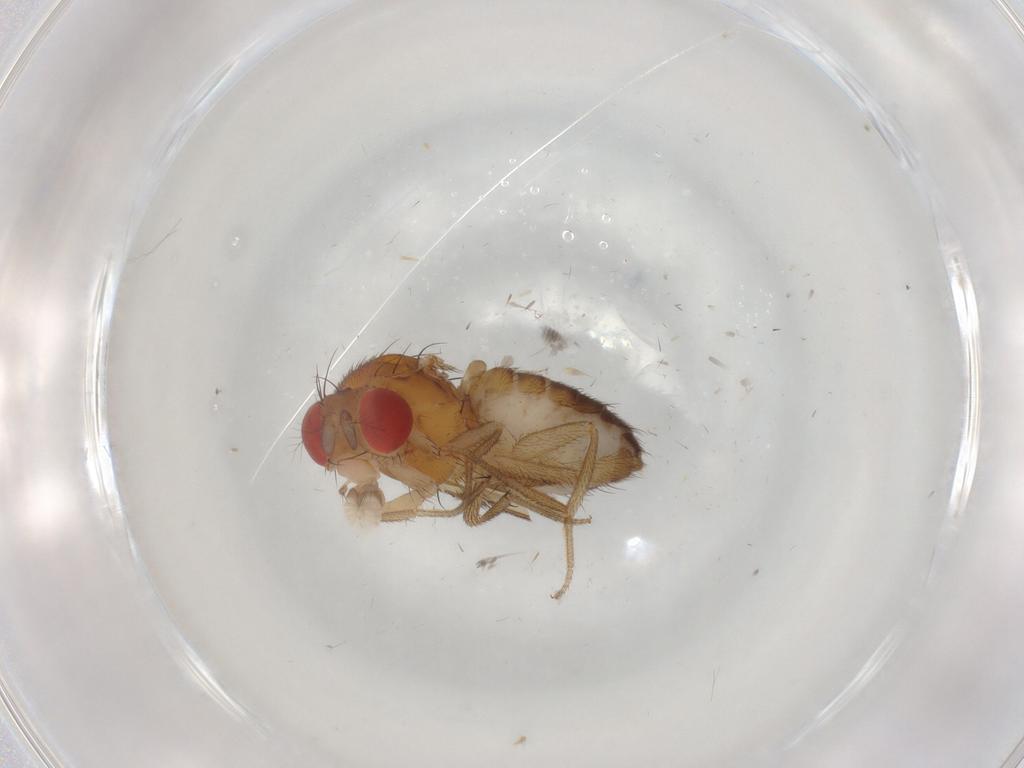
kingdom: Animalia
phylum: Arthropoda
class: Insecta
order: Diptera
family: Drosophilidae
